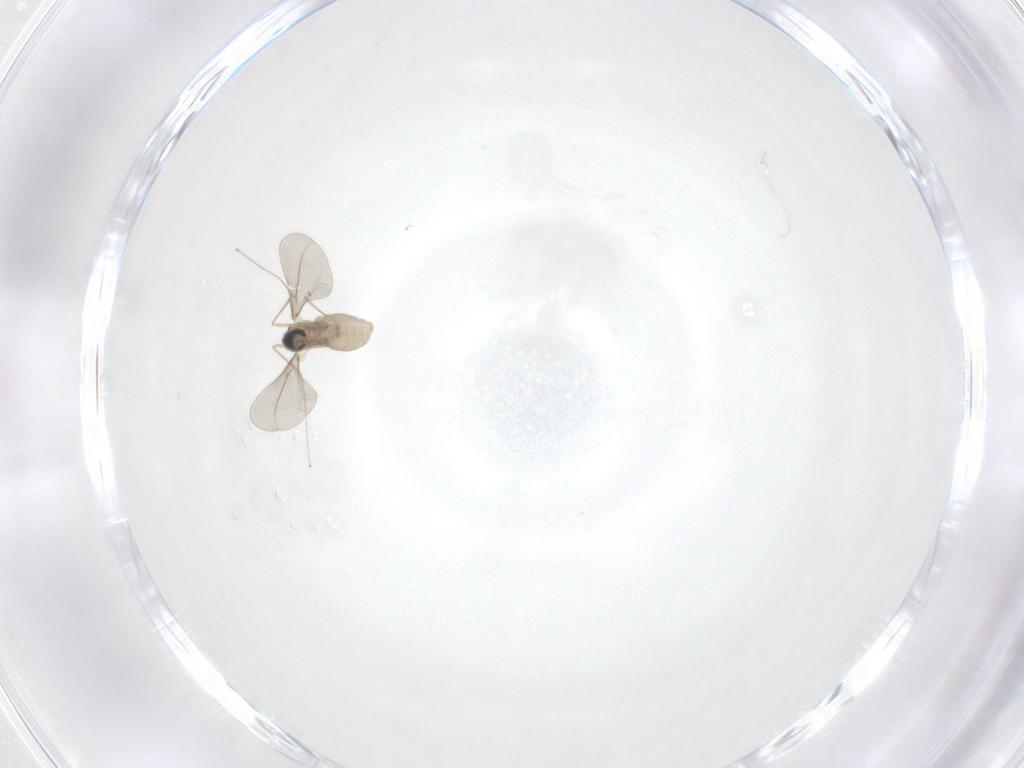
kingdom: Animalia
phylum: Arthropoda
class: Insecta
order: Diptera
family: Cecidomyiidae
